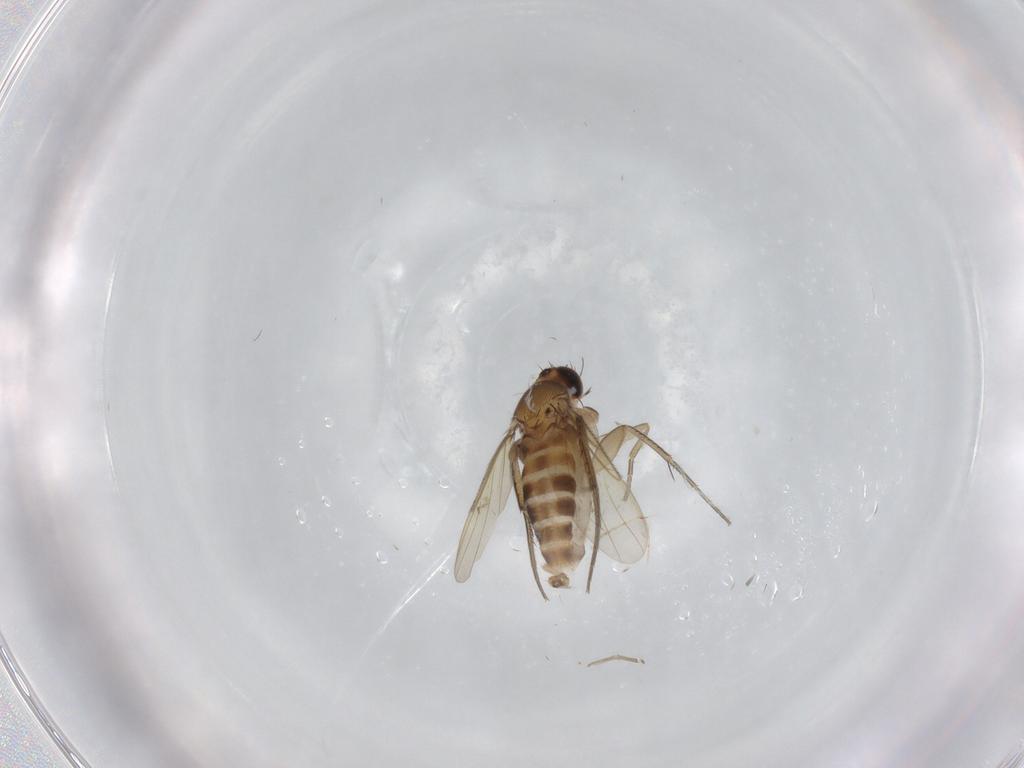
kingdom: Animalia
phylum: Arthropoda
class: Insecta
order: Diptera
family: Phoridae
